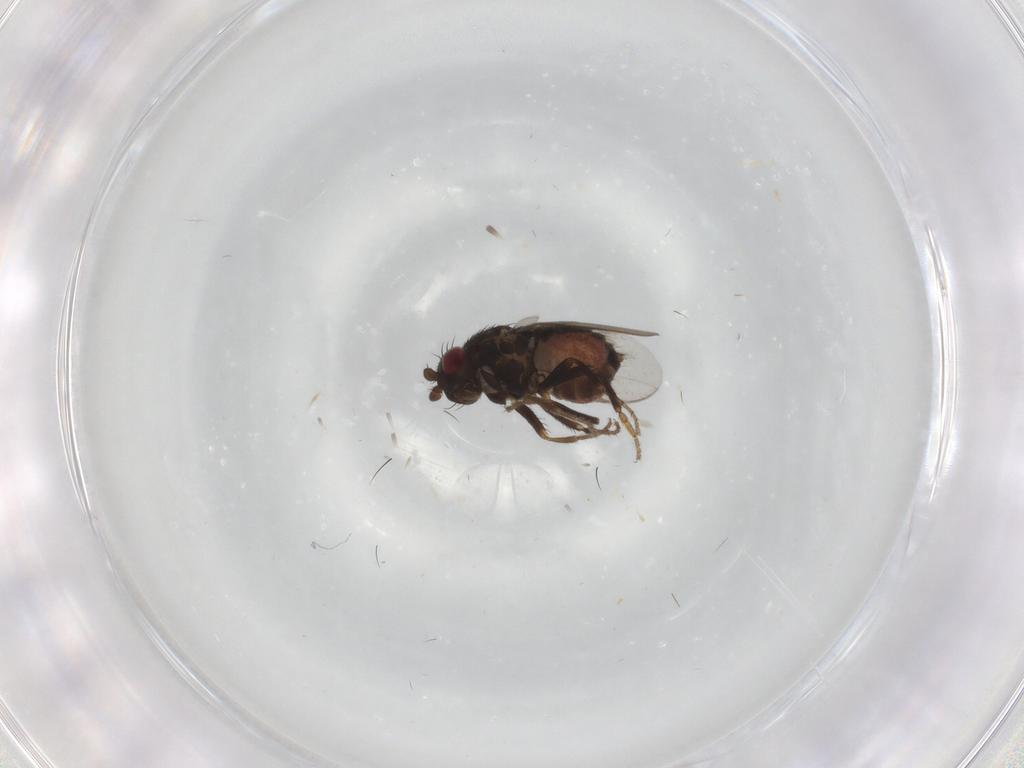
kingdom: Animalia
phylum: Arthropoda
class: Insecta
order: Diptera
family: Sphaeroceridae
